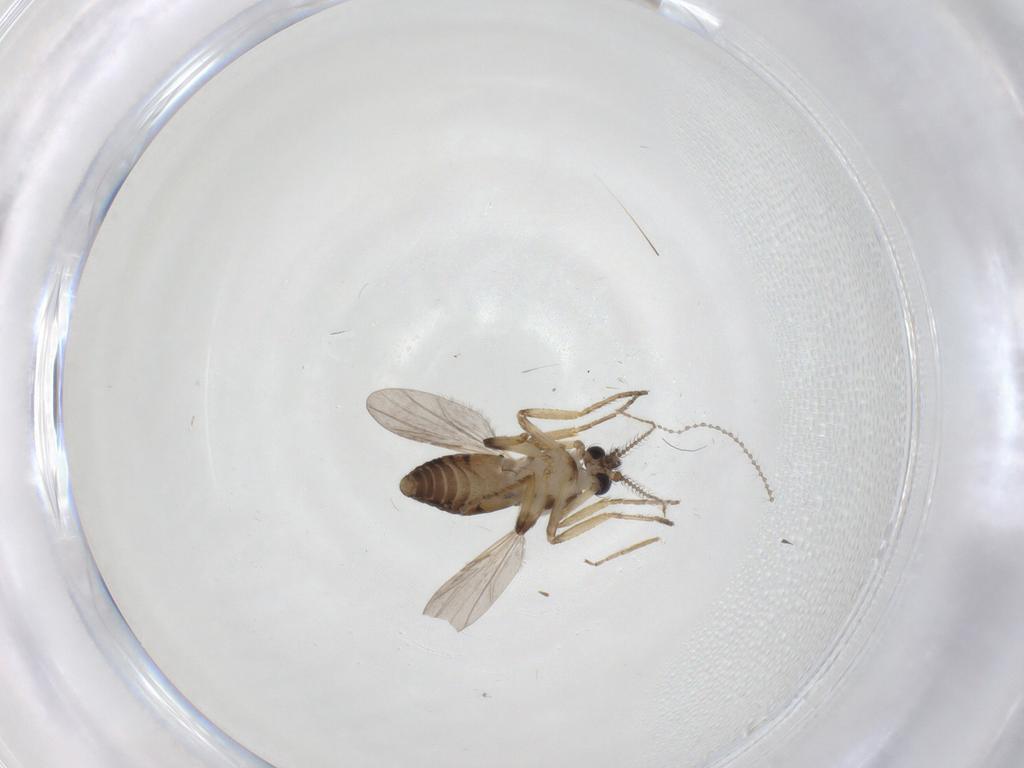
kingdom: Animalia
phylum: Arthropoda
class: Insecta
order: Diptera
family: Ceratopogonidae
